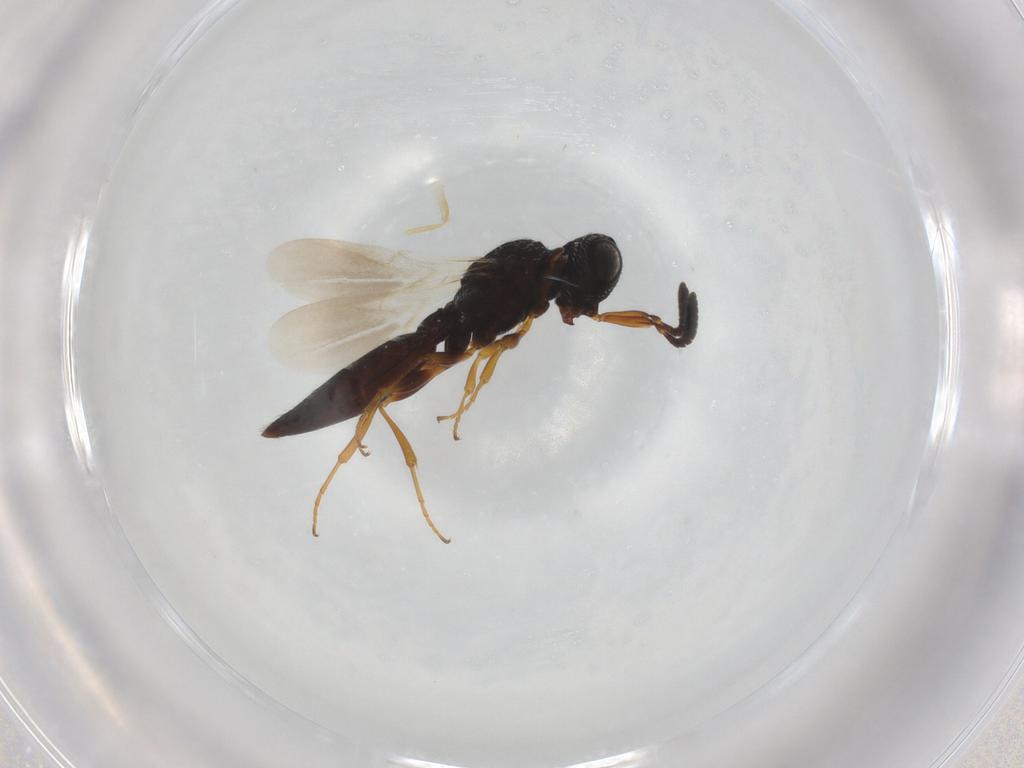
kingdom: Animalia
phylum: Arthropoda
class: Insecta
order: Hymenoptera
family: Scelionidae
